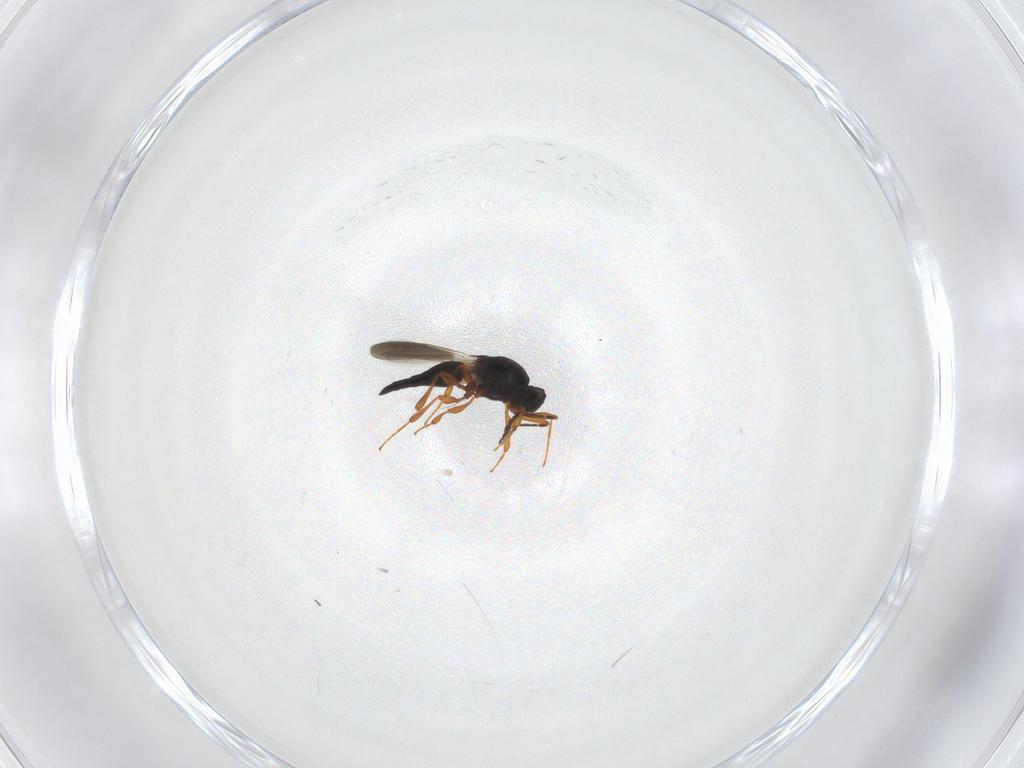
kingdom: Animalia
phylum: Arthropoda
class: Insecta
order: Hymenoptera
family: Platygastridae
